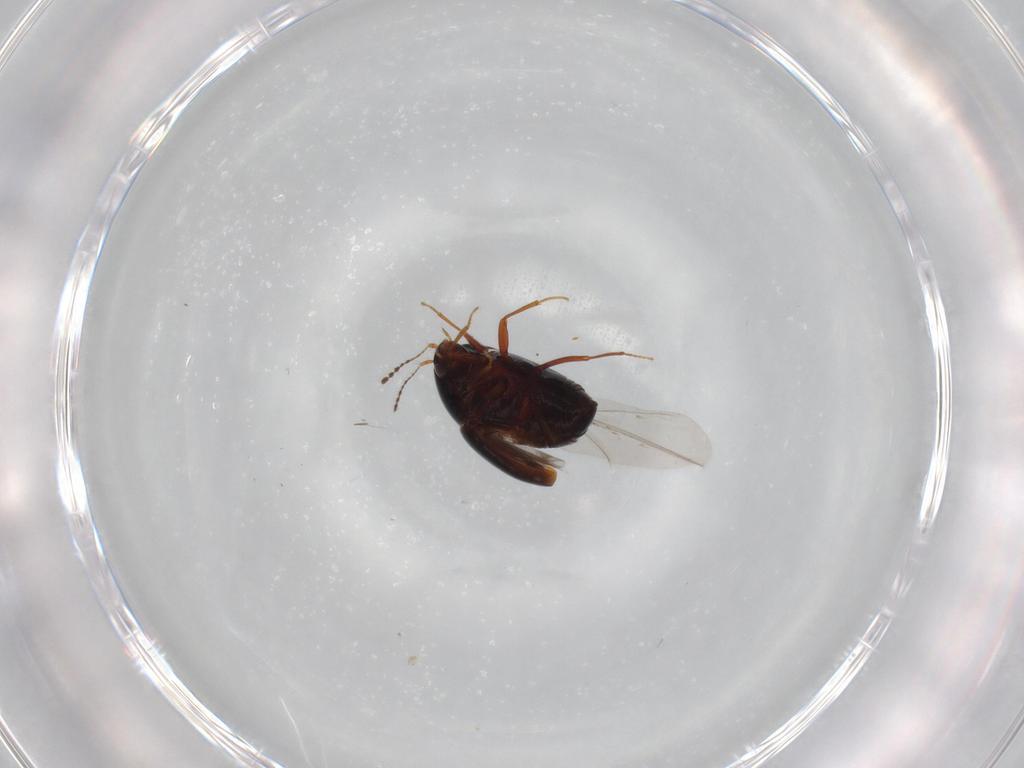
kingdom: Animalia
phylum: Arthropoda
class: Insecta
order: Coleoptera
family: Staphylinidae
